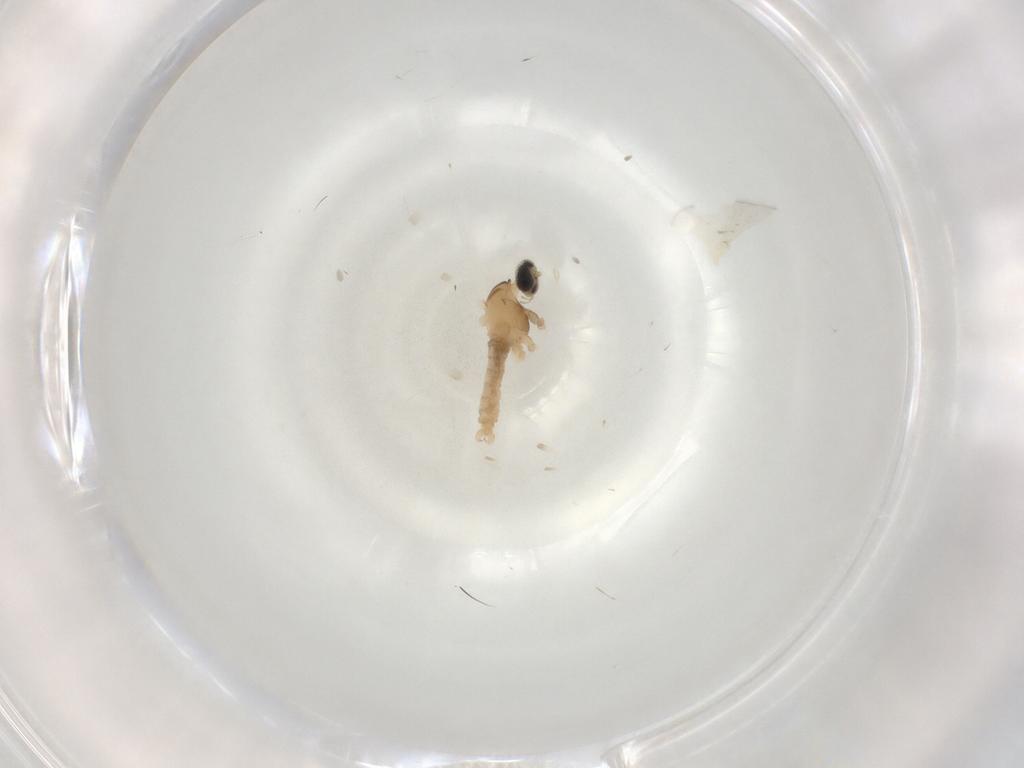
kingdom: Animalia
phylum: Arthropoda
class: Insecta
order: Diptera
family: Cecidomyiidae
